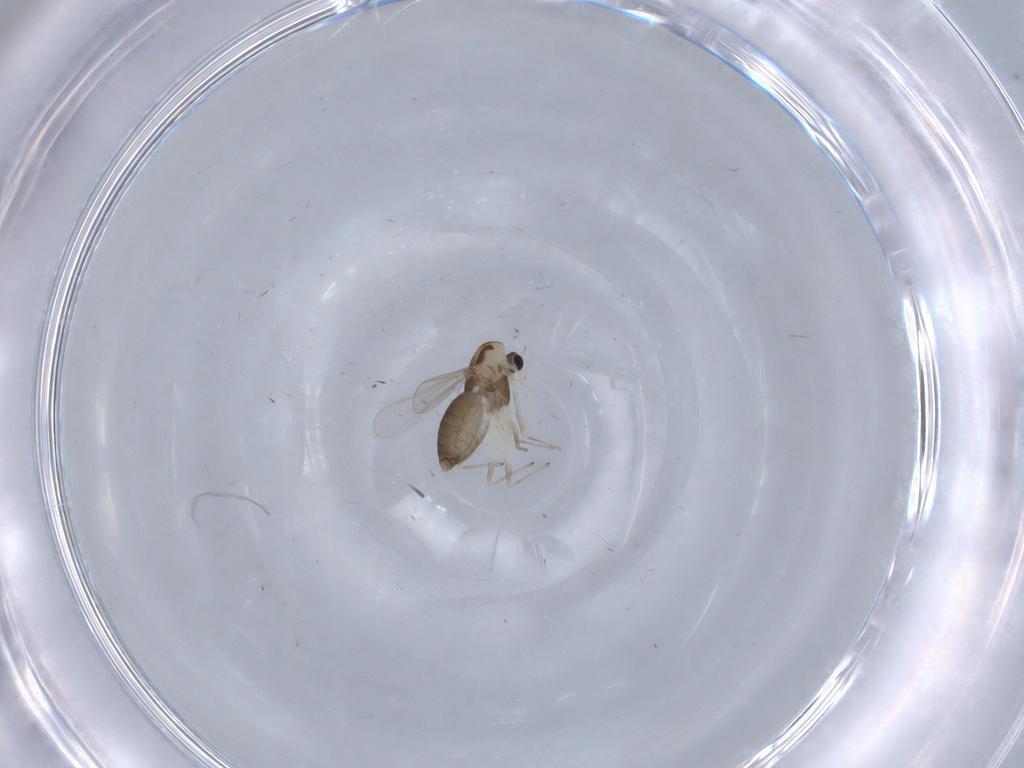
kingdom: Animalia
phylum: Arthropoda
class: Insecta
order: Diptera
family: Chironomidae
